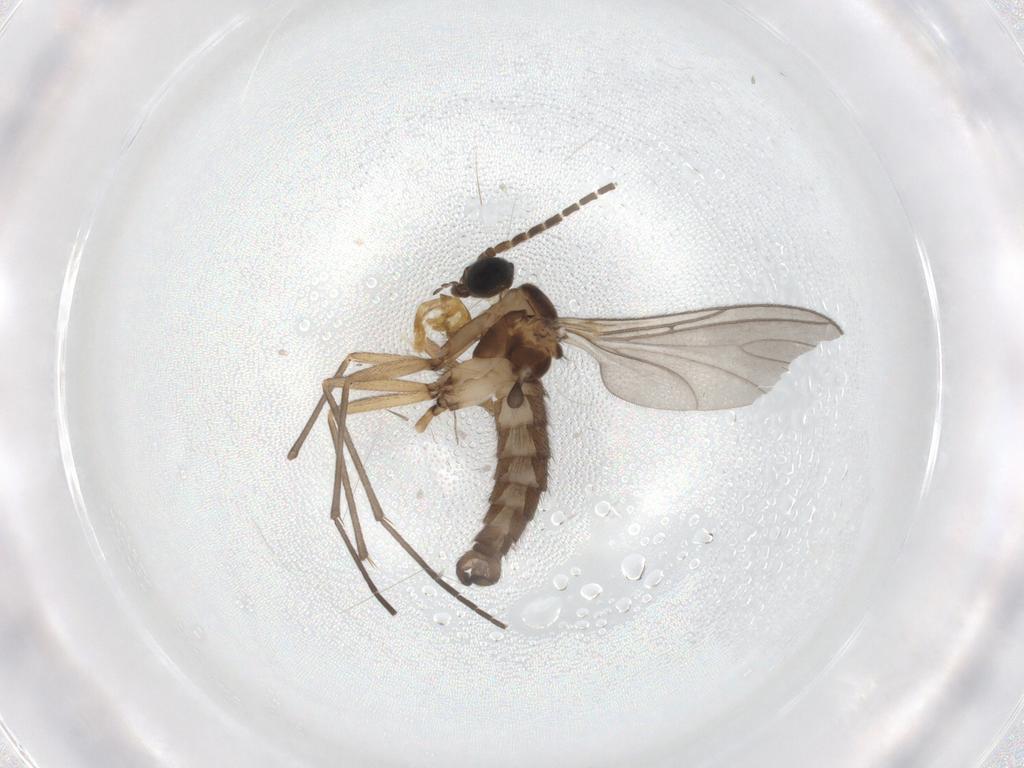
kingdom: Animalia
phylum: Arthropoda
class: Insecta
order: Diptera
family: Sciaridae
